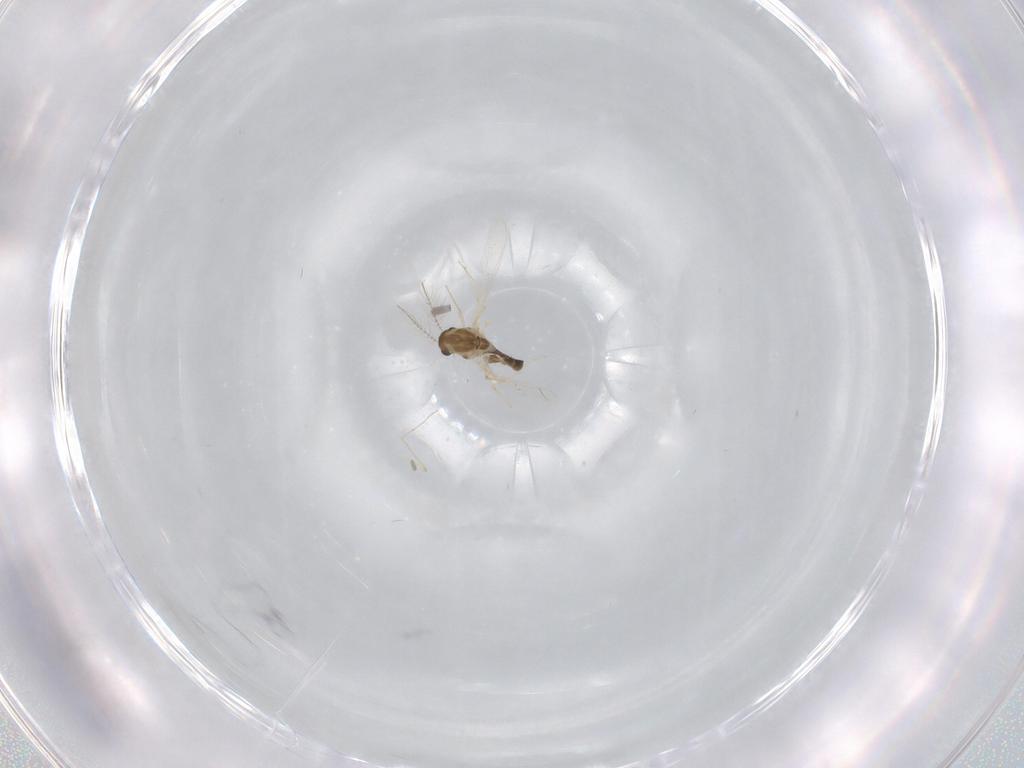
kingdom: Animalia
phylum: Arthropoda
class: Insecta
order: Diptera
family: Chironomidae
